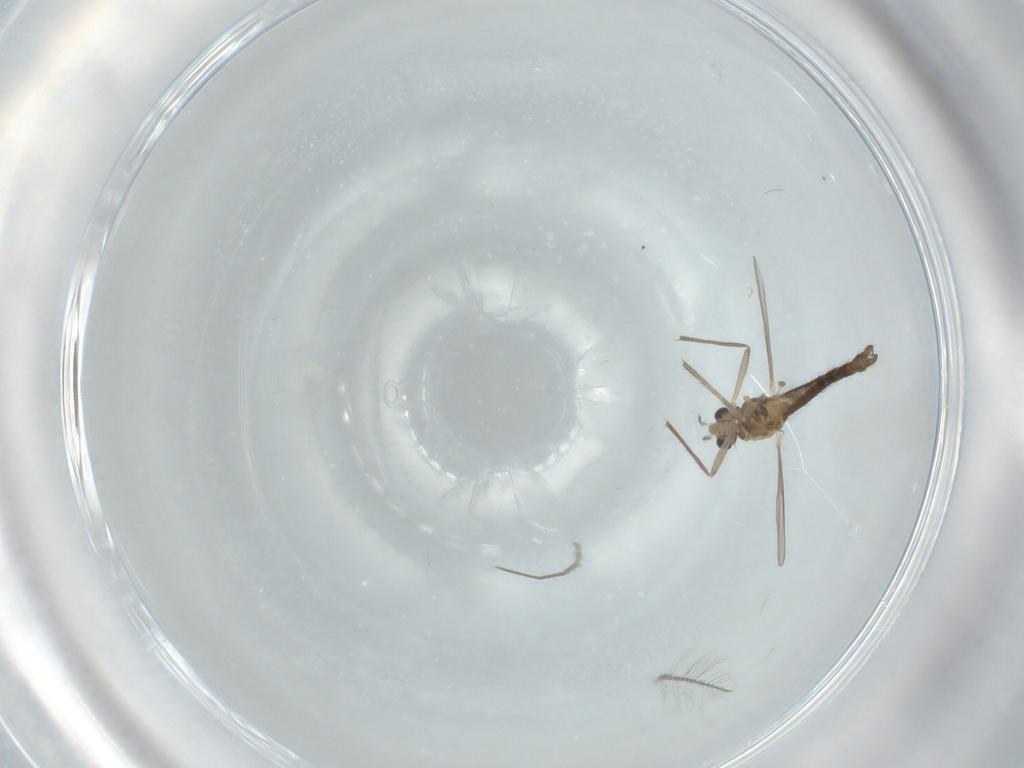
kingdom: Animalia
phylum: Arthropoda
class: Insecta
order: Diptera
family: Chironomidae
